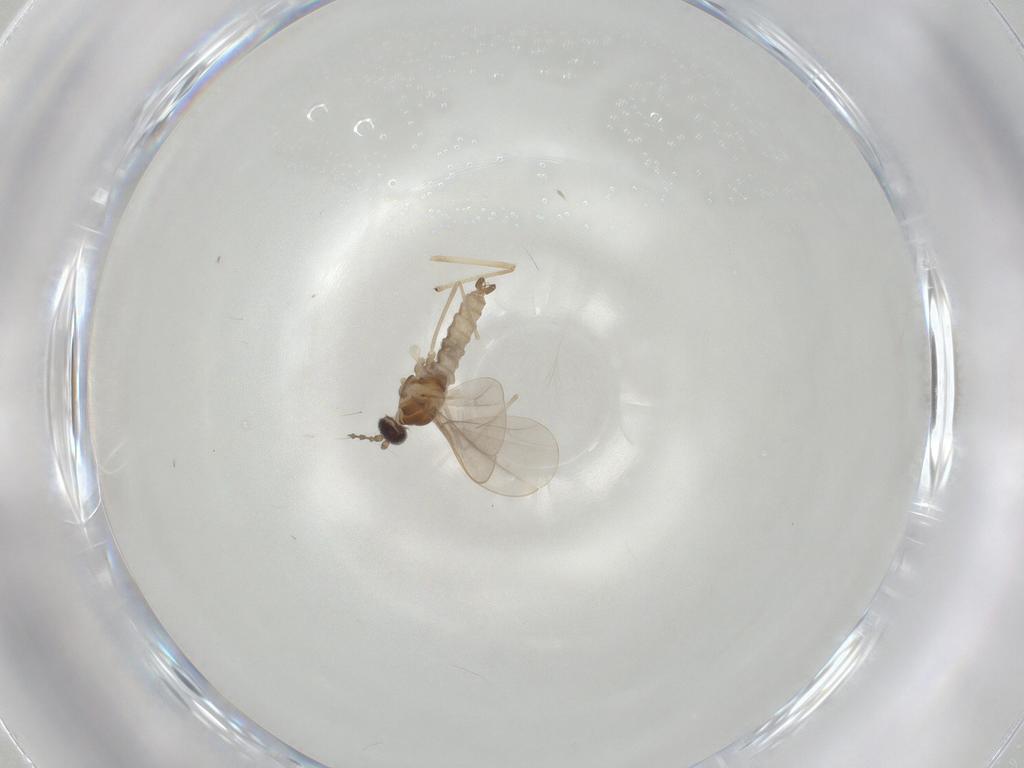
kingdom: Animalia
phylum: Arthropoda
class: Insecta
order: Diptera
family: Cecidomyiidae
